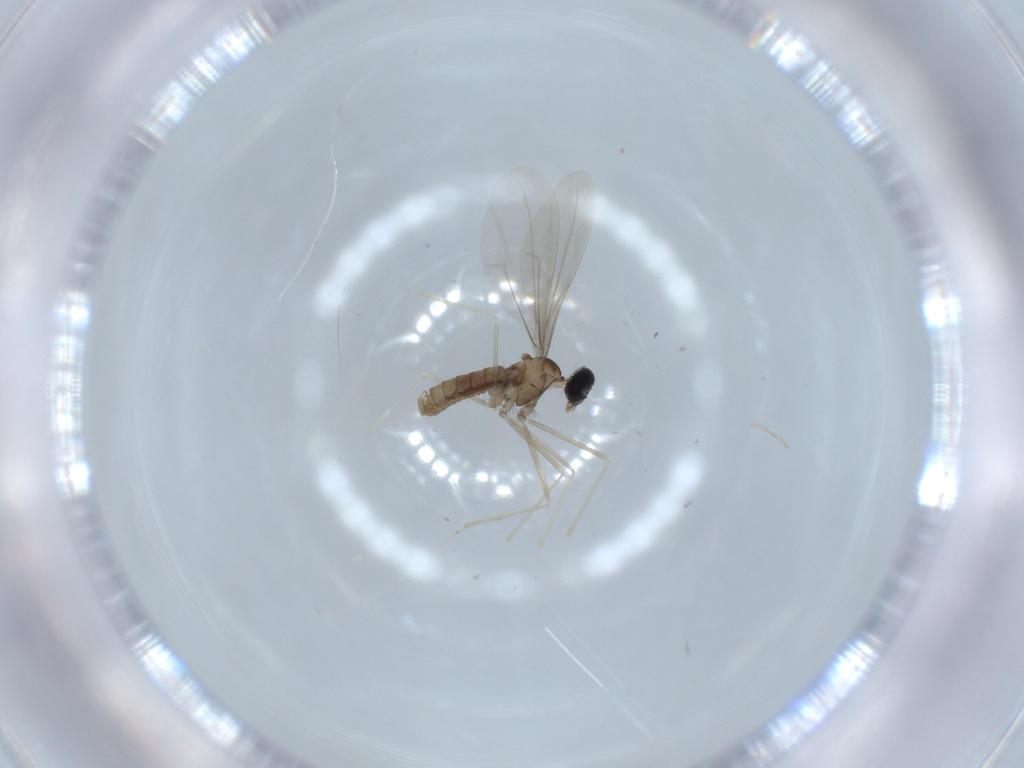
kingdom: Animalia
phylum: Arthropoda
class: Insecta
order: Diptera
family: Cecidomyiidae
